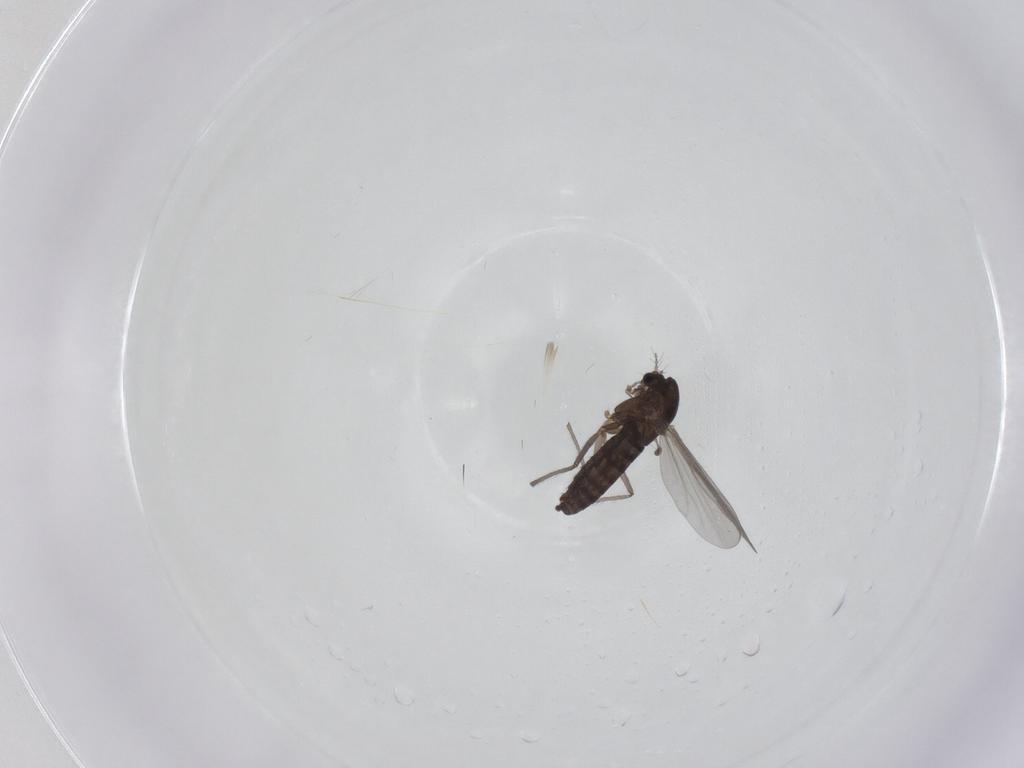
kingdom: Animalia
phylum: Arthropoda
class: Insecta
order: Diptera
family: Chironomidae
